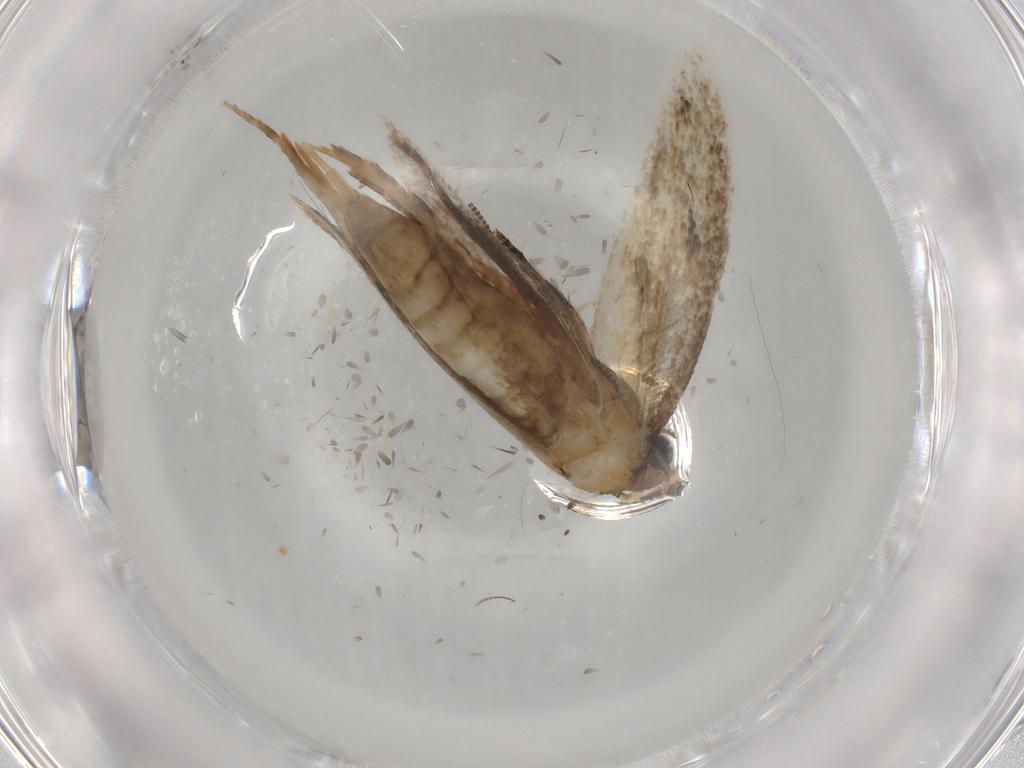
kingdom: Animalia
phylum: Arthropoda
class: Insecta
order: Lepidoptera
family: Tineidae
